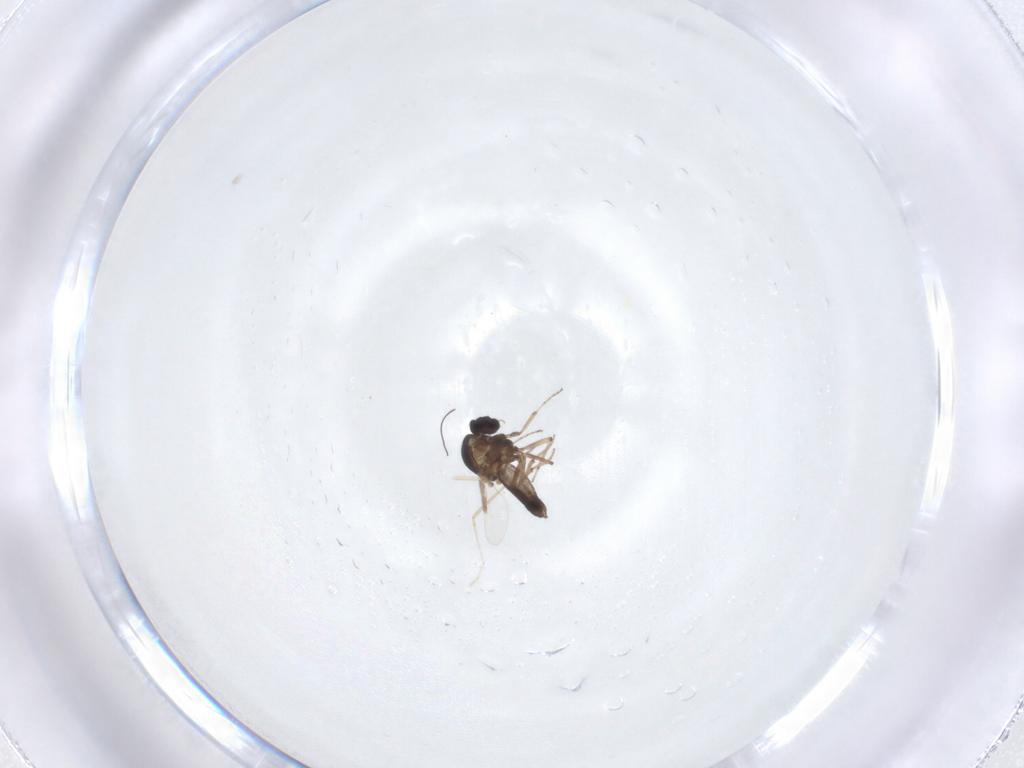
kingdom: Animalia
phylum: Arthropoda
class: Insecta
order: Diptera
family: Ceratopogonidae
